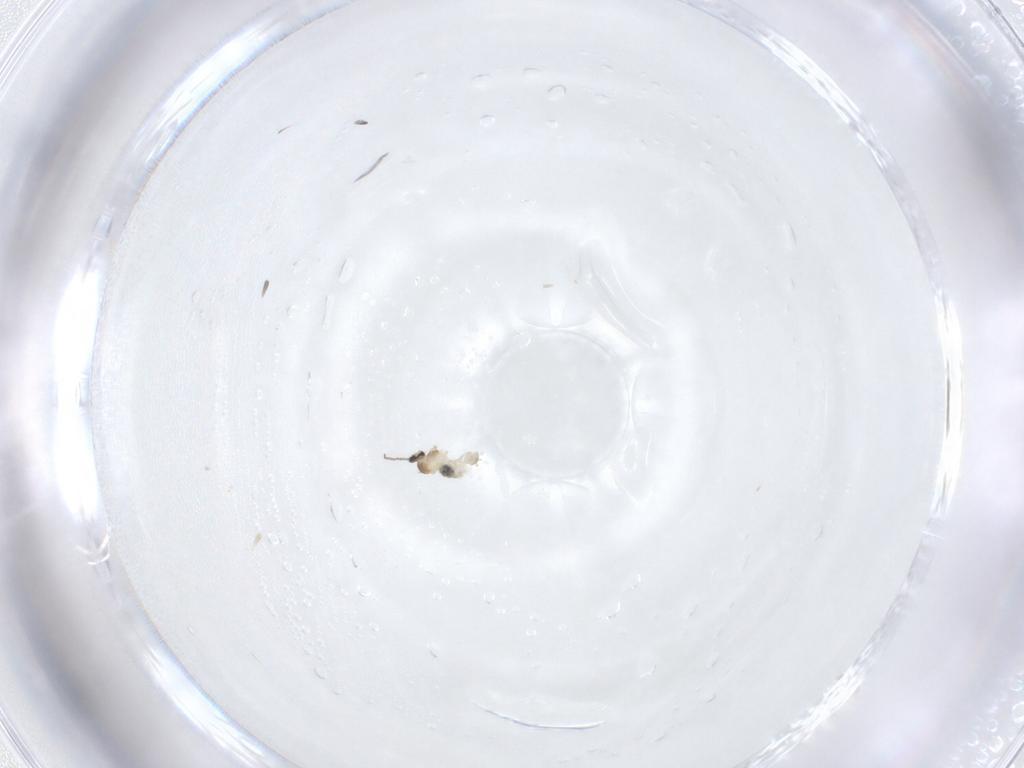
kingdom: Animalia
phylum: Arthropoda
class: Insecta
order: Diptera
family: Cecidomyiidae
